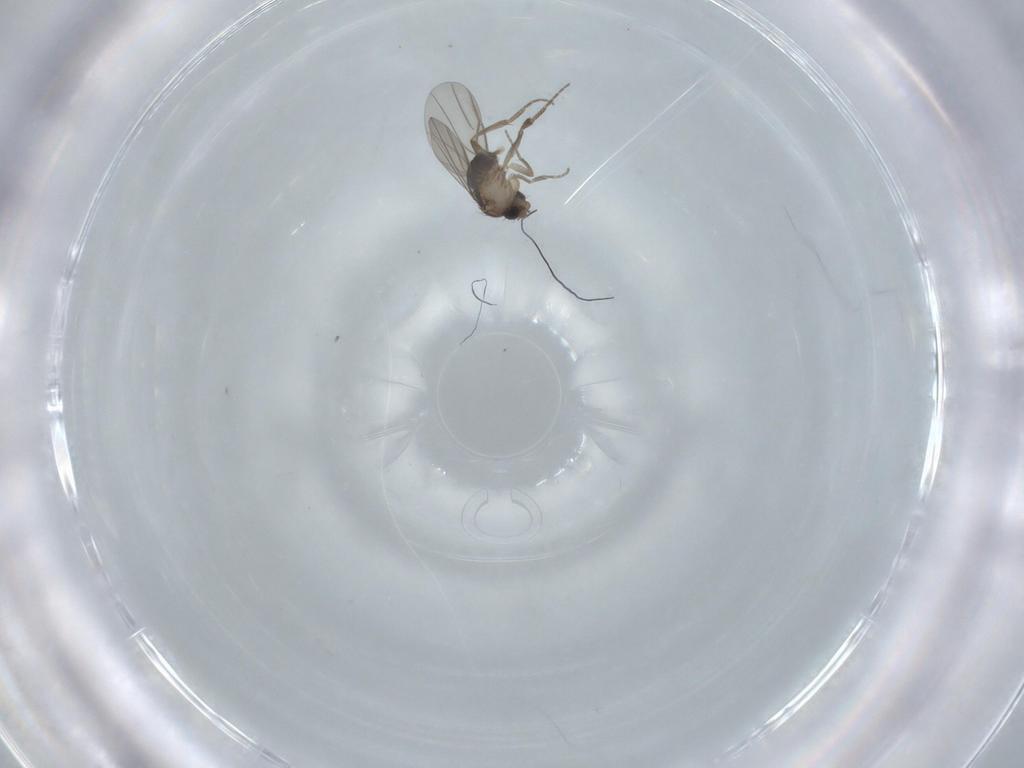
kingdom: Animalia
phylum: Arthropoda
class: Insecta
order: Diptera
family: Phoridae
